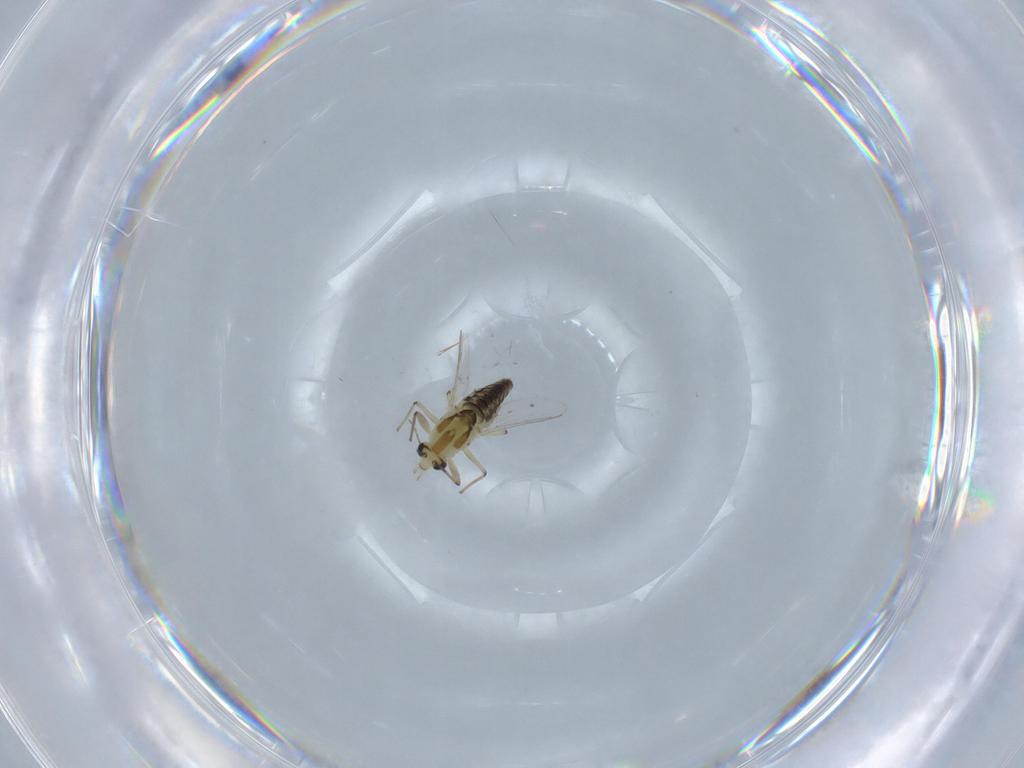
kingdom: Animalia
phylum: Arthropoda
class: Insecta
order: Diptera
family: Chironomidae
